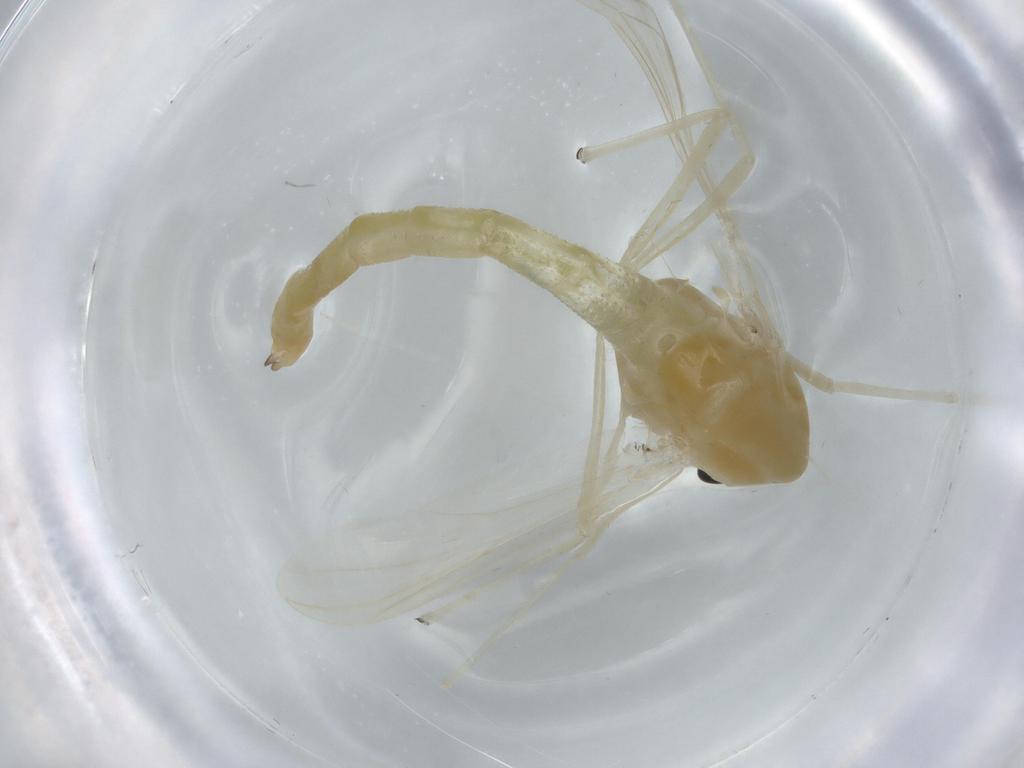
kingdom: Animalia
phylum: Arthropoda
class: Insecta
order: Diptera
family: Chironomidae
